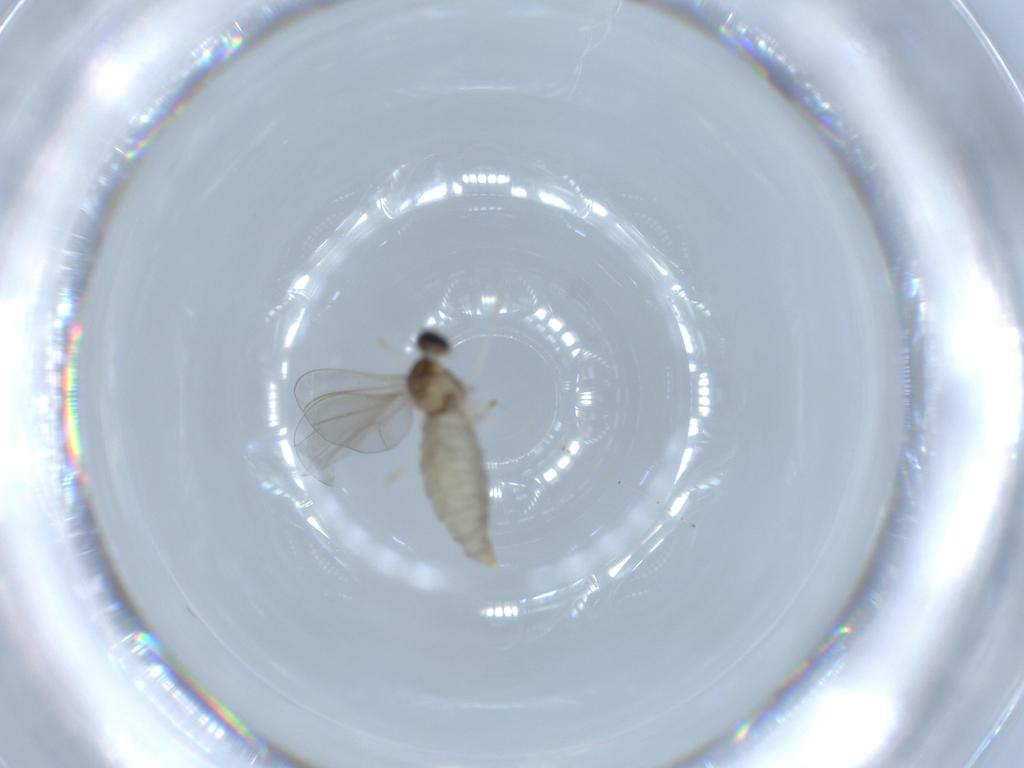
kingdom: Animalia
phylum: Arthropoda
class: Insecta
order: Diptera
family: Cecidomyiidae
